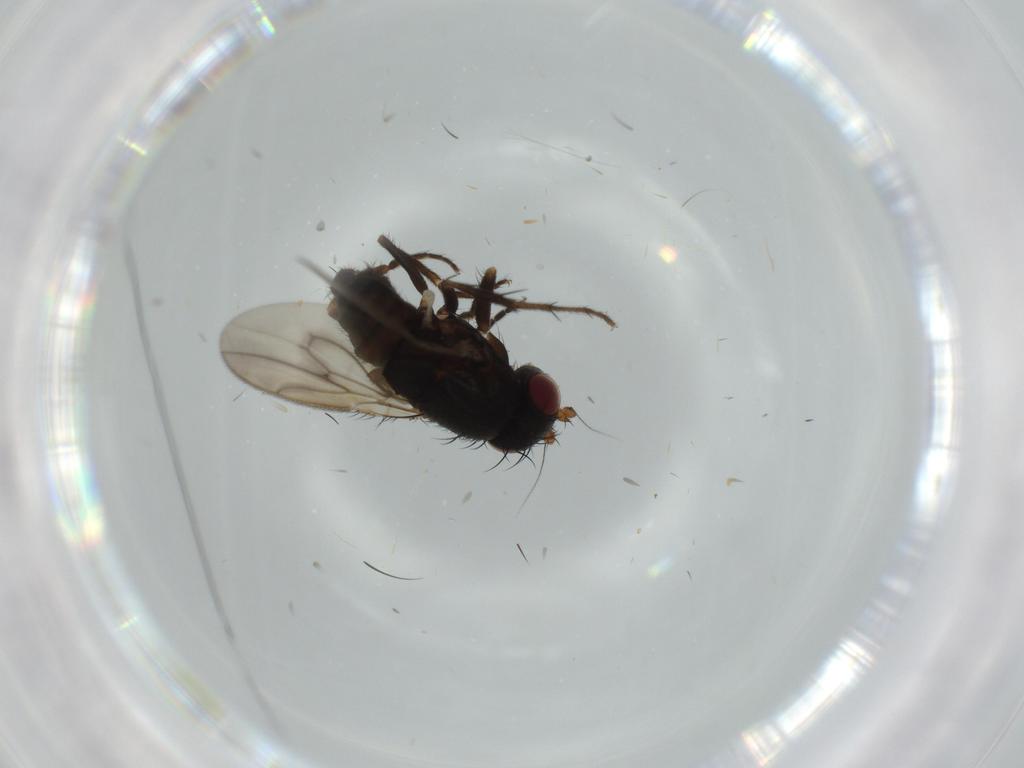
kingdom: Animalia
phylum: Arthropoda
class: Insecta
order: Diptera
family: Cecidomyiidae
